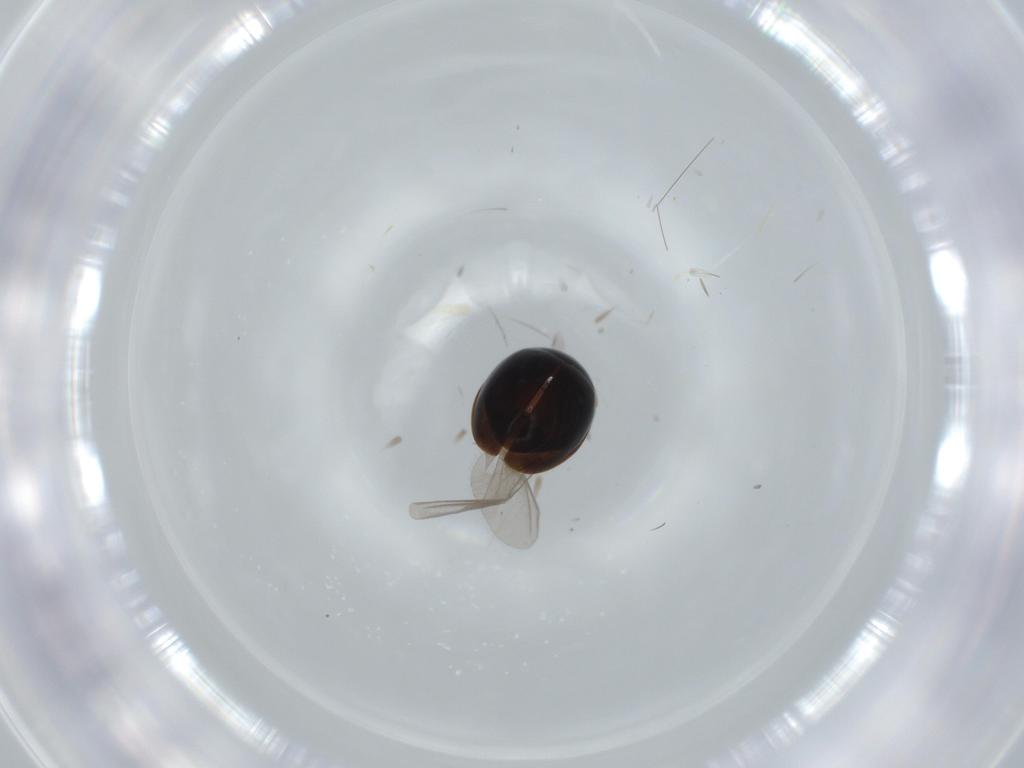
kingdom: Animalia
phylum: Arthropoda
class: Insecta
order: Coleoptera
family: Corylophidae
